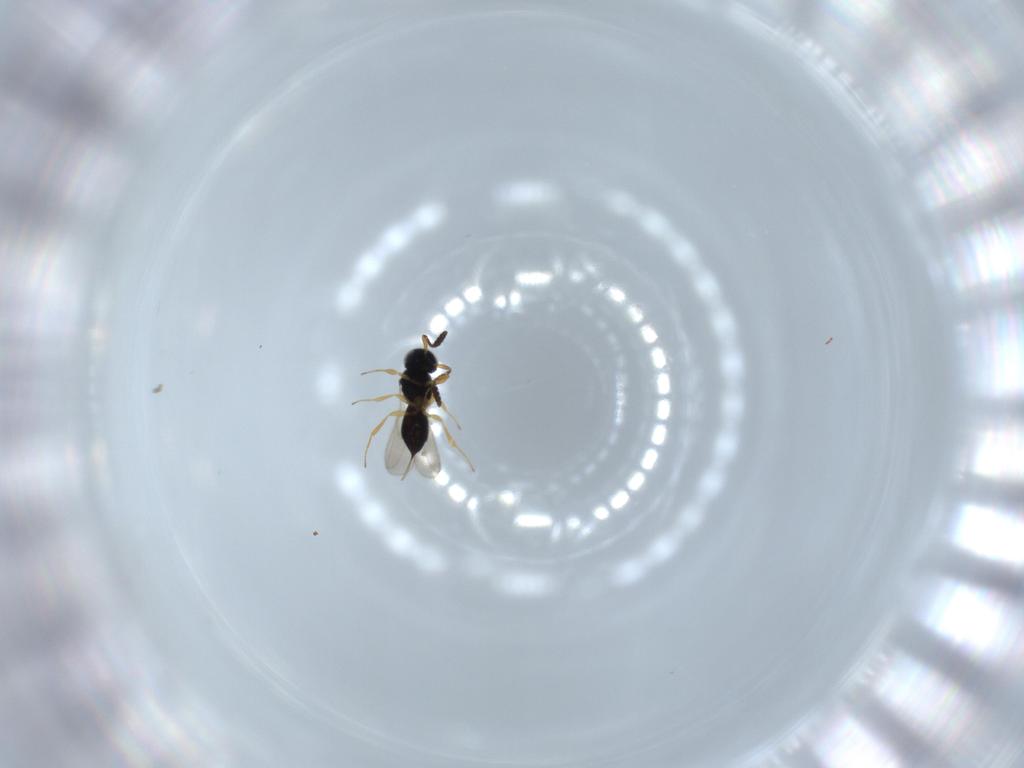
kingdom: Animalia
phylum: Arthropoda
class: Insecta
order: Hymenoptera
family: Scelionidae
